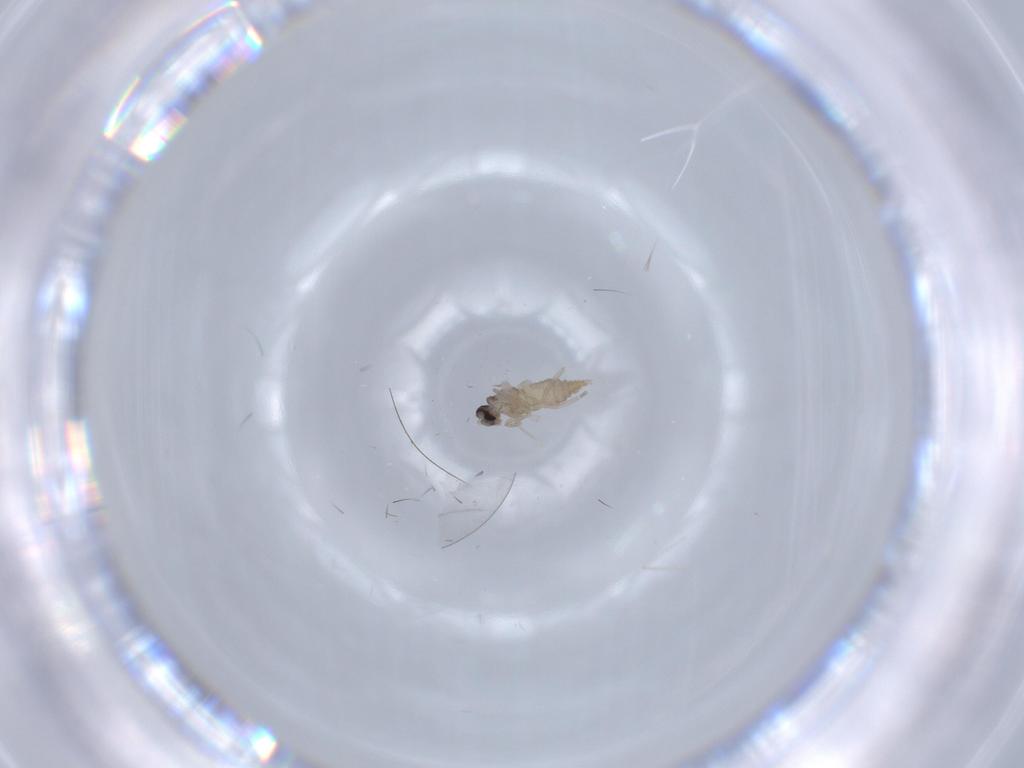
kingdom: Animalia
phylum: Arthropoda
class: Insecta
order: Diptera
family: Cecidomyiidae
